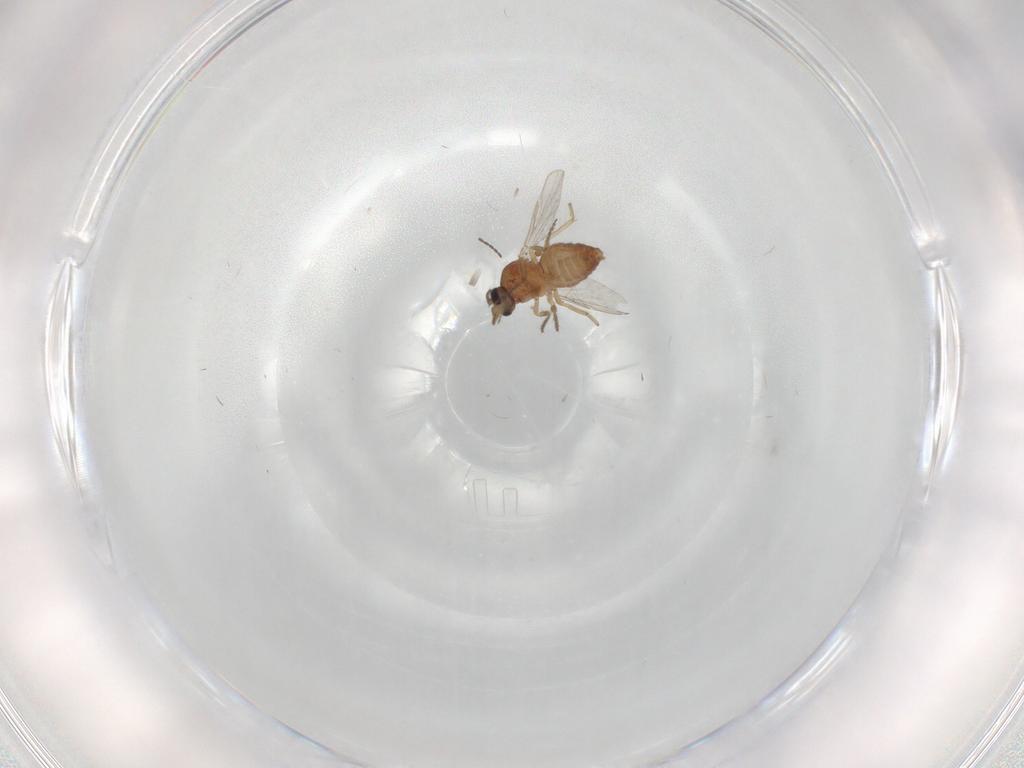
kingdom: Animalia
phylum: Arthropoda
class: Insecta
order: Diptera
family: Cecidomyiidae
